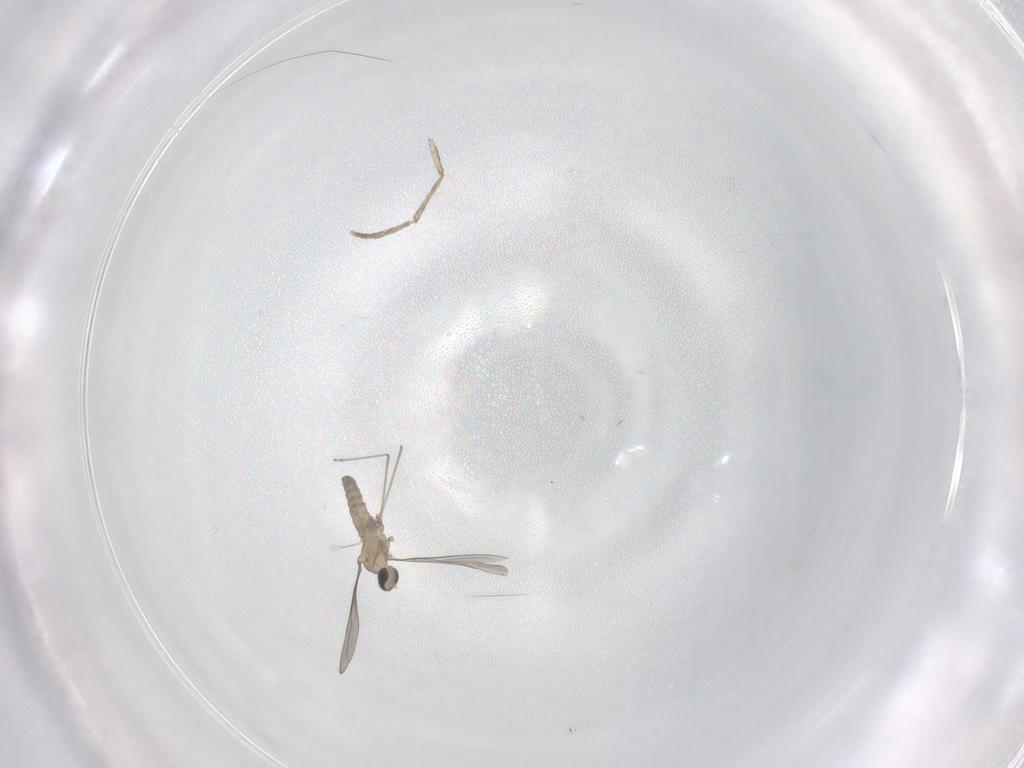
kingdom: Animalia
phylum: Arthropoda
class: Insecta
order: Diptera
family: Cecidomyiidae
